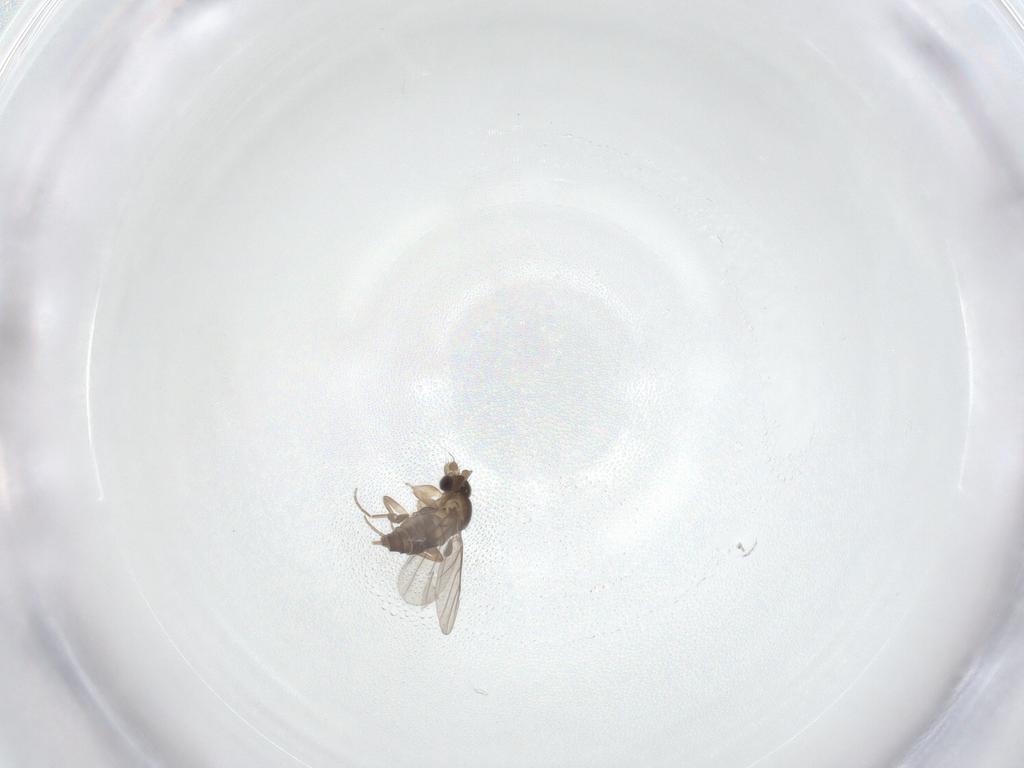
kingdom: Animalia
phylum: Arthropoda
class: Insecta
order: Diptera
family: Phoridae
